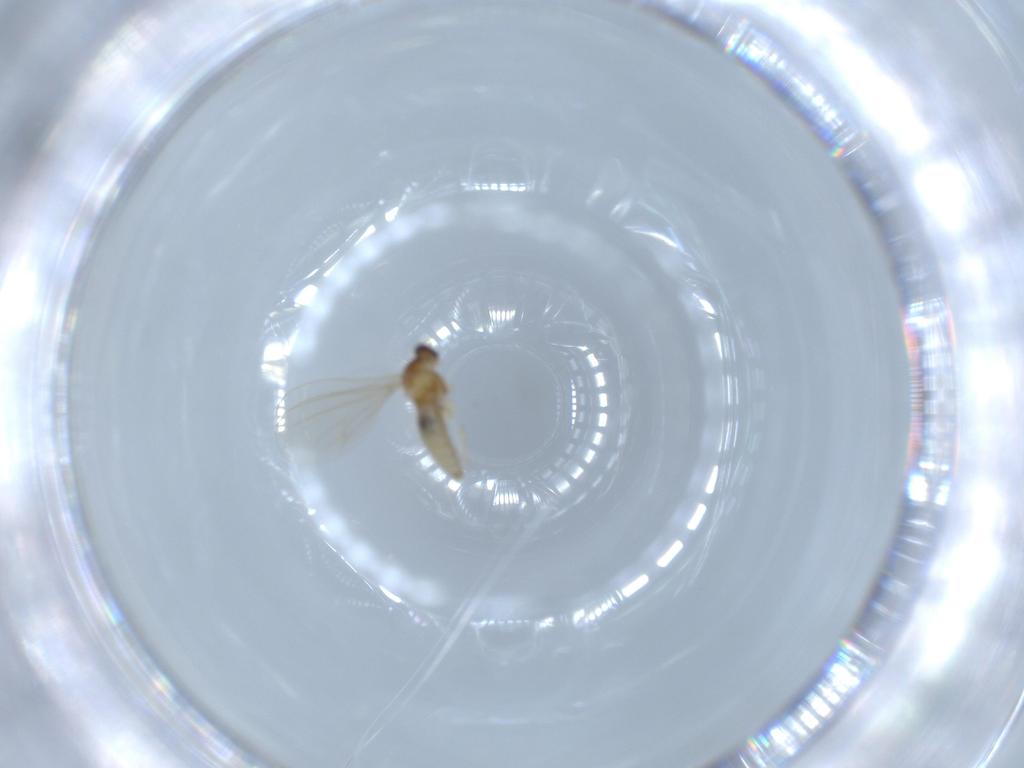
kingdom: Animalia
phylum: Arthropoda
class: Insecta
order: Diptera
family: Cecidomyiidae
